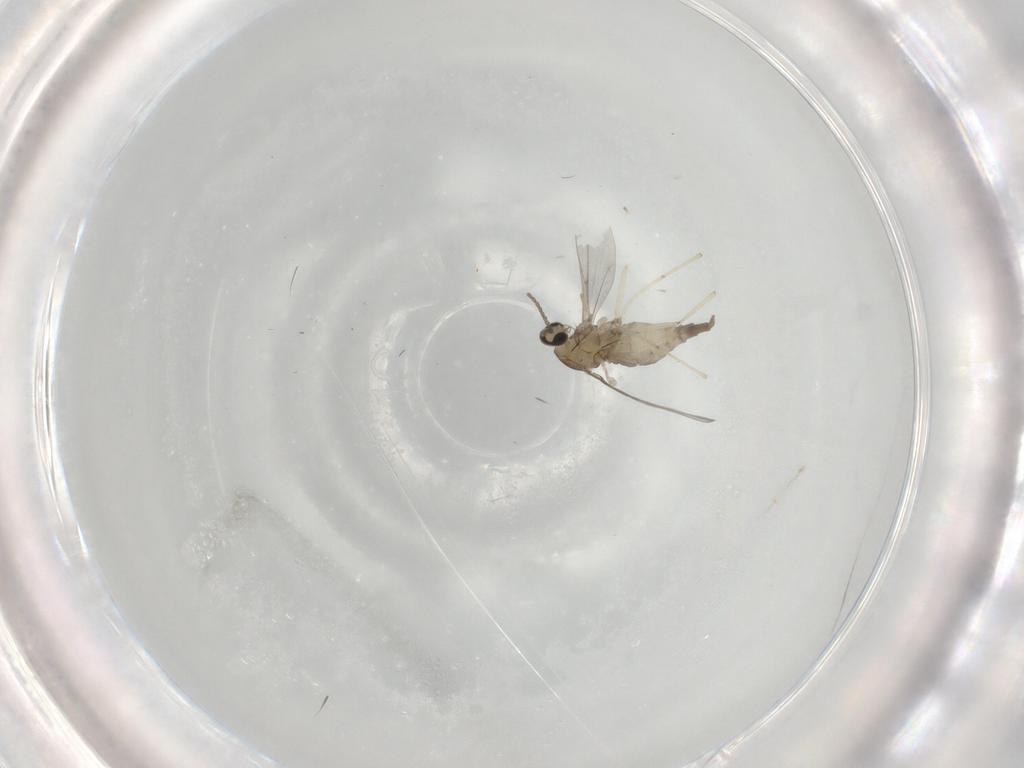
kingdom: Animalia
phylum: Arthropoda
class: Insecta
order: Diptera
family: Cecidomyiidae
